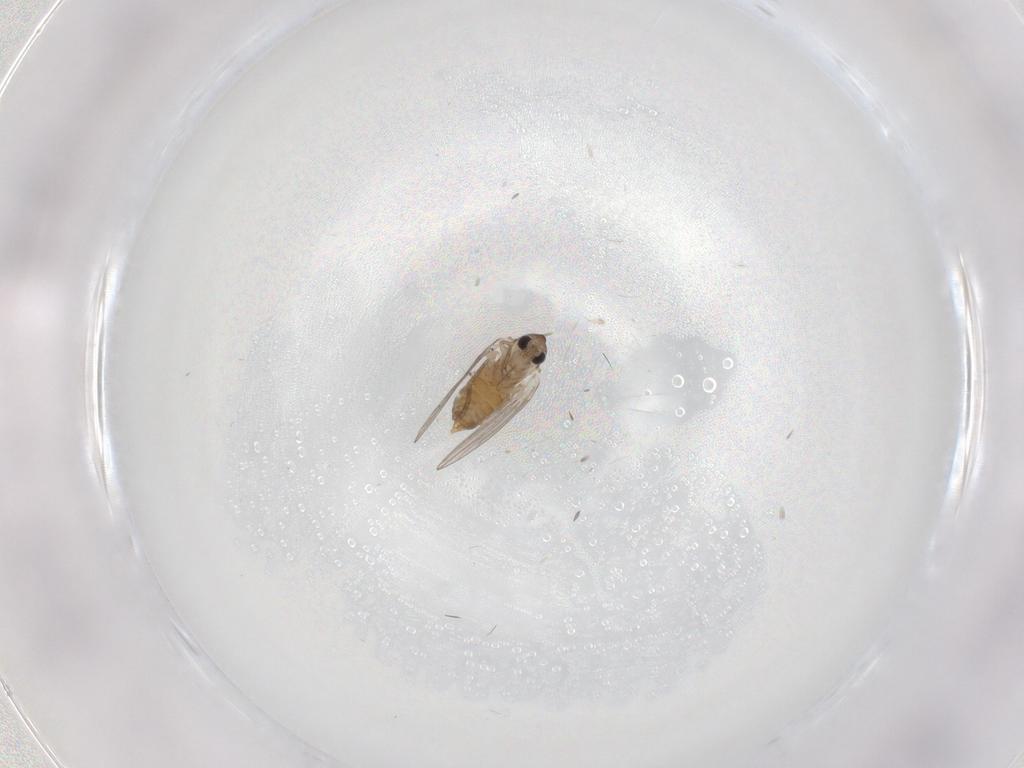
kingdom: Animalia
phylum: Arthropoda
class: Insecta
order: Diptera
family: Psychodidae
